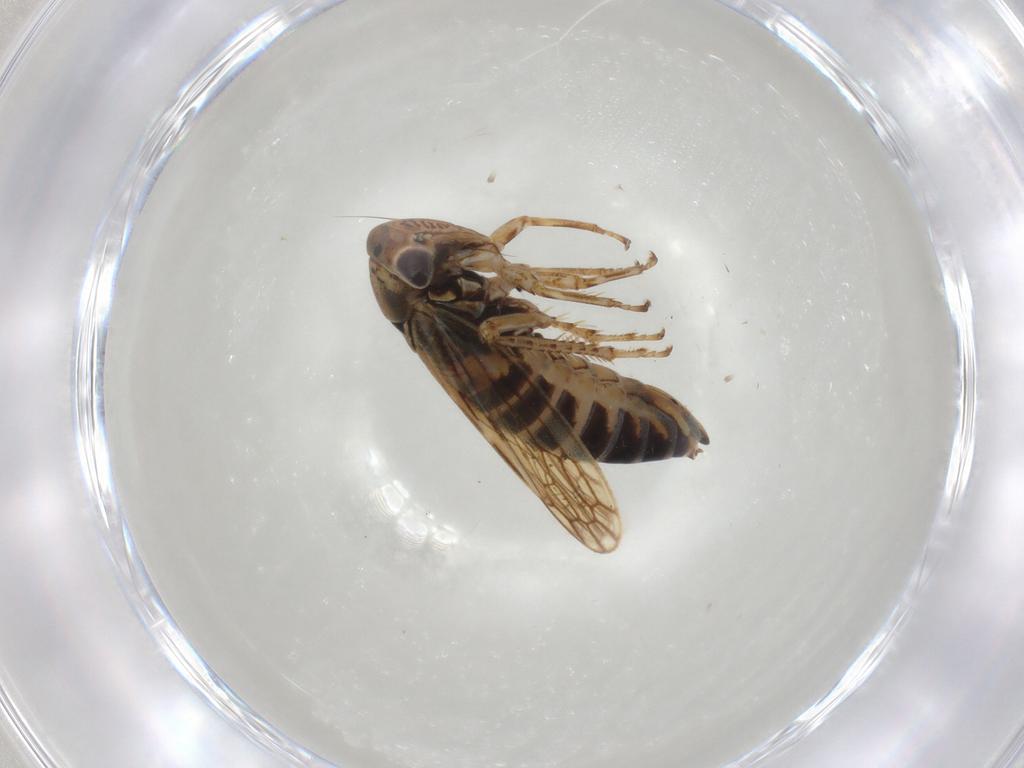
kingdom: Animalia
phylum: Arthropoda
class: Insecta
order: Hemiptera
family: Cicadellidae
